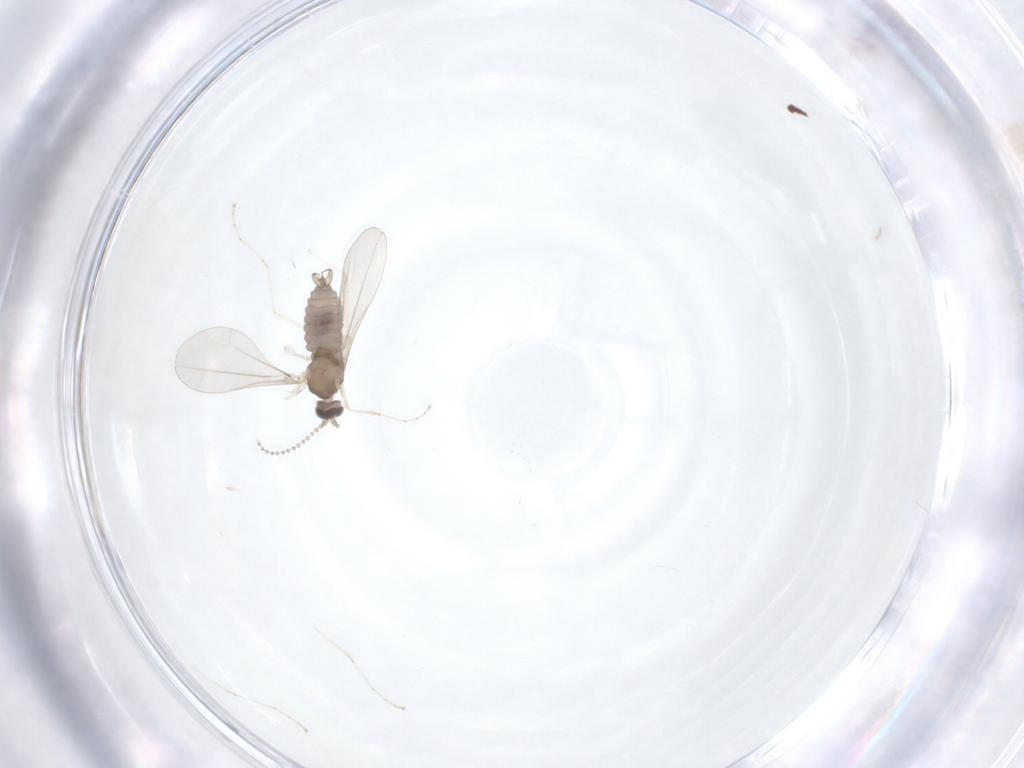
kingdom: Animalia
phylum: Arthropoda
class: Insecta
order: Diptera
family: Cecidomyiidae
